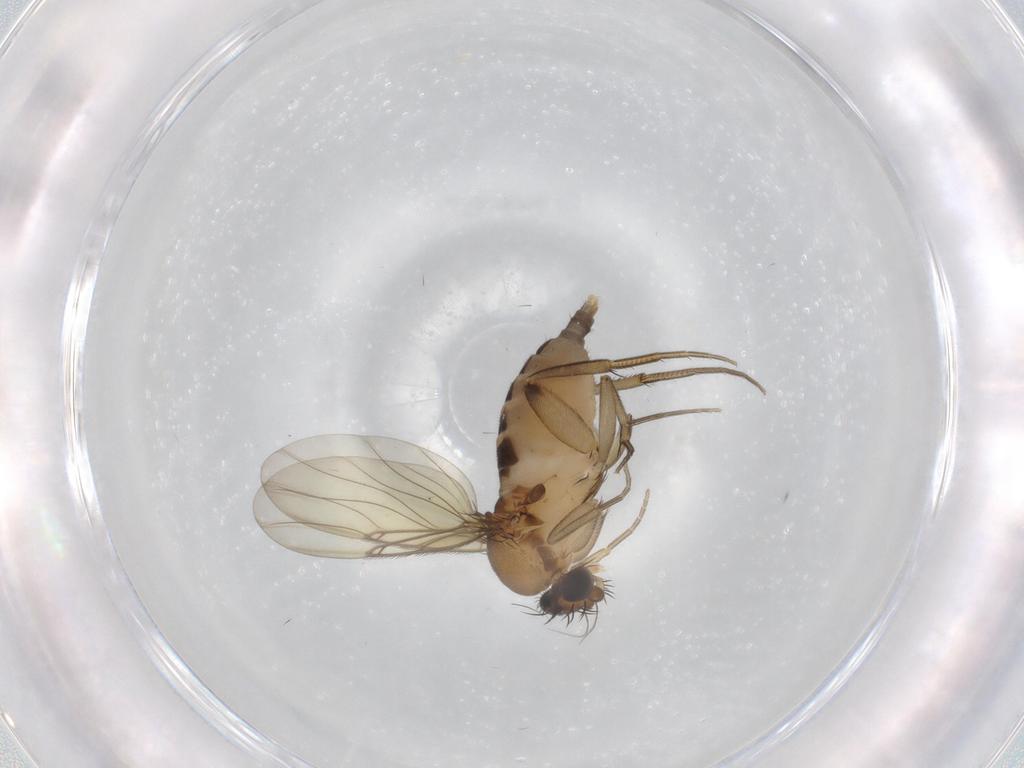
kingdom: Animalia
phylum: Arthropoda
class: Insecta
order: Diptera
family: Phoridae
